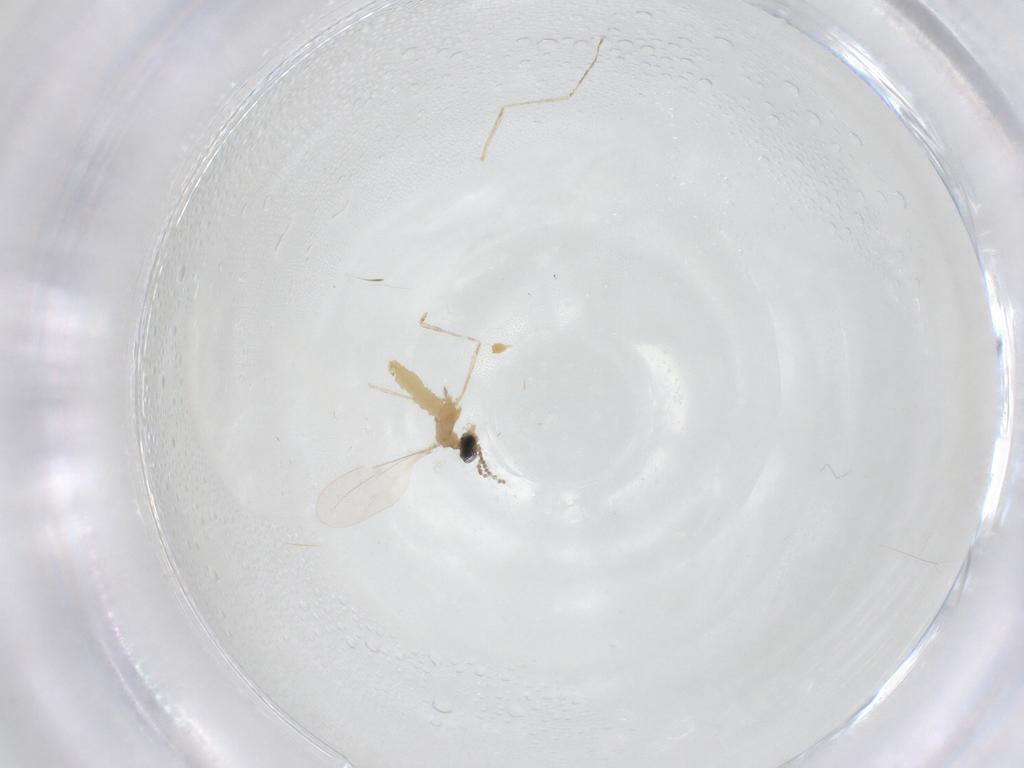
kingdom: Animalia
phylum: Arthropoda
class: Insecta
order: Diptera
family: Cecidomyiidae
